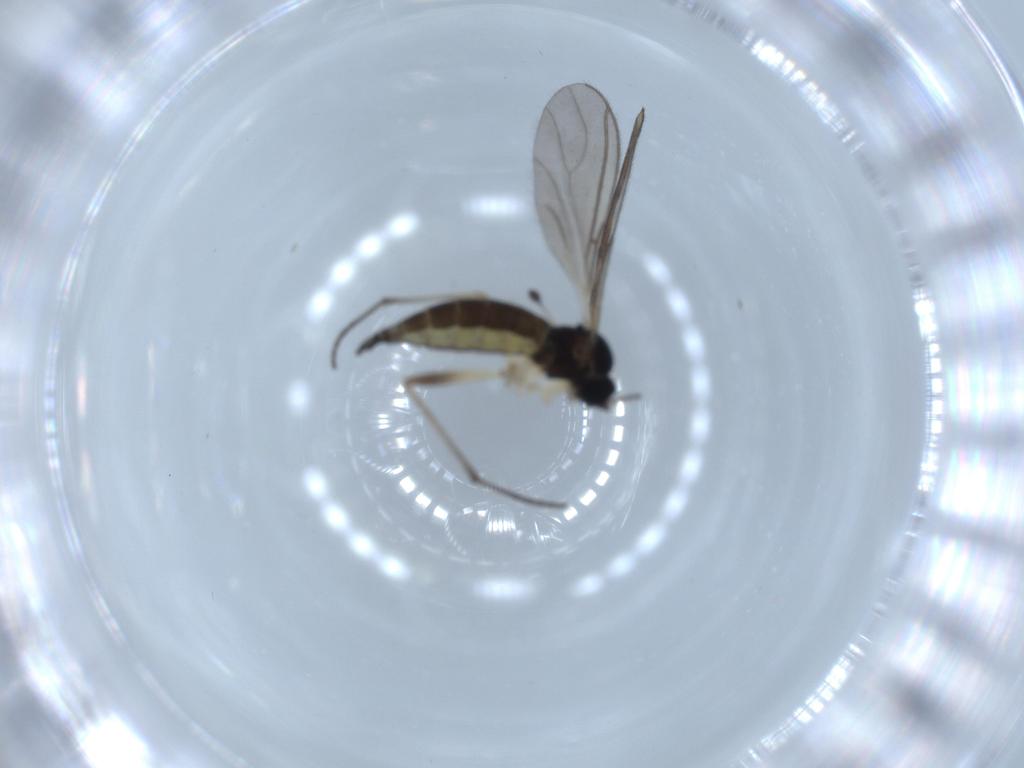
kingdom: Animalia
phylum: Arthropoda
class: Insecta
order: Diptera
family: Sciaridae
